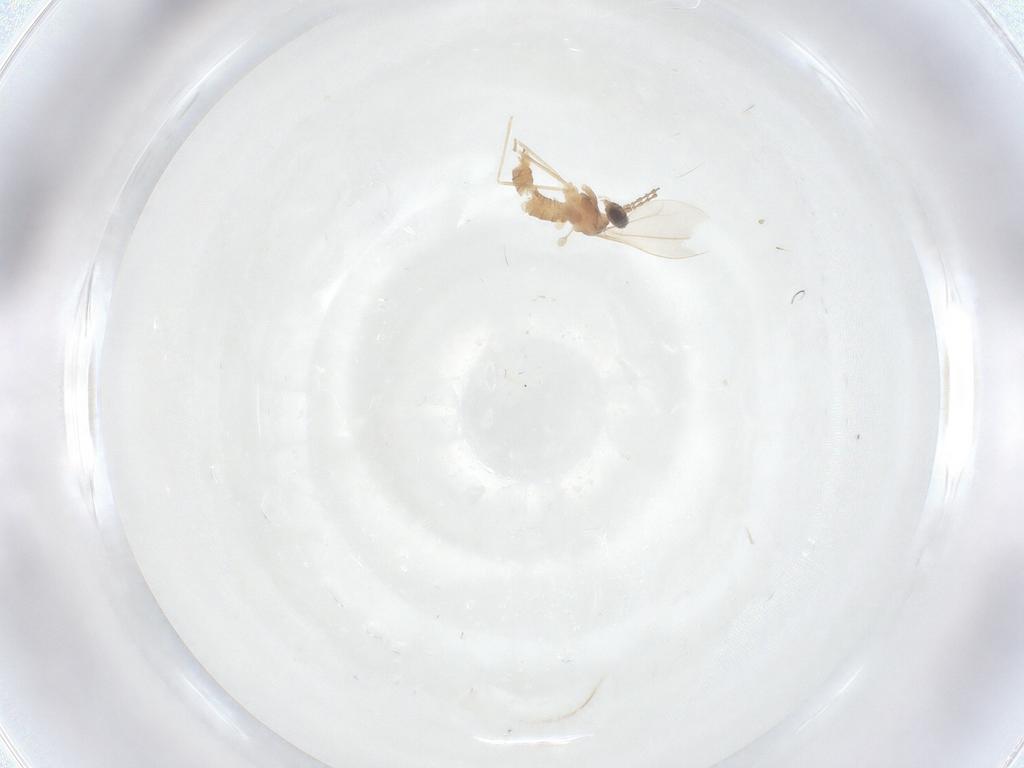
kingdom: Animalia
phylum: Arthropoda
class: Insecta
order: Diptera
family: Cecidomyiidae
